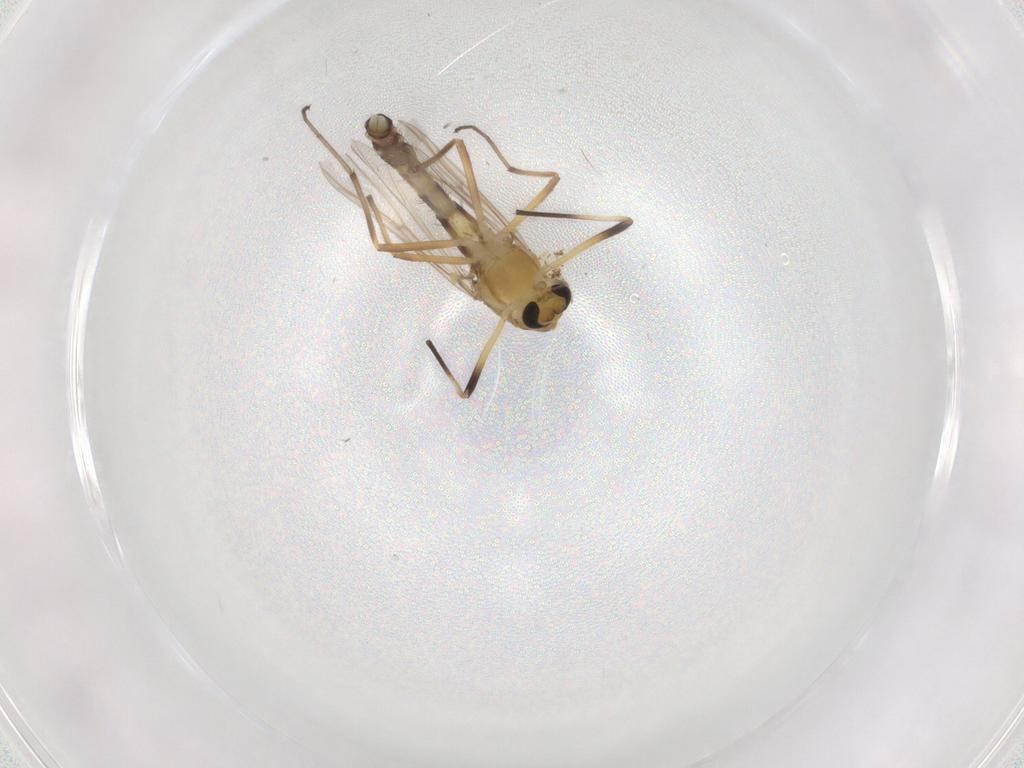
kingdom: Animalia
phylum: Arthropoda
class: Insecta
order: Diptera
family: Chironomidae
